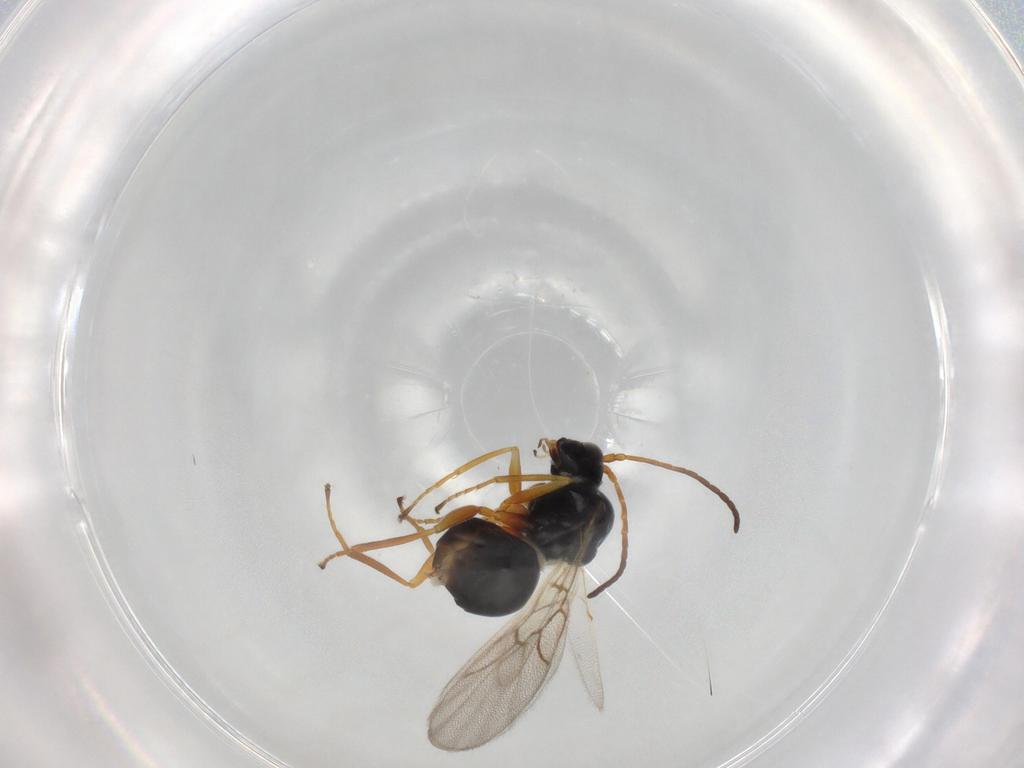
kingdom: Animalia
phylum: Arthropoda
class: Insecta
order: Hymenoptera
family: Figitidae
